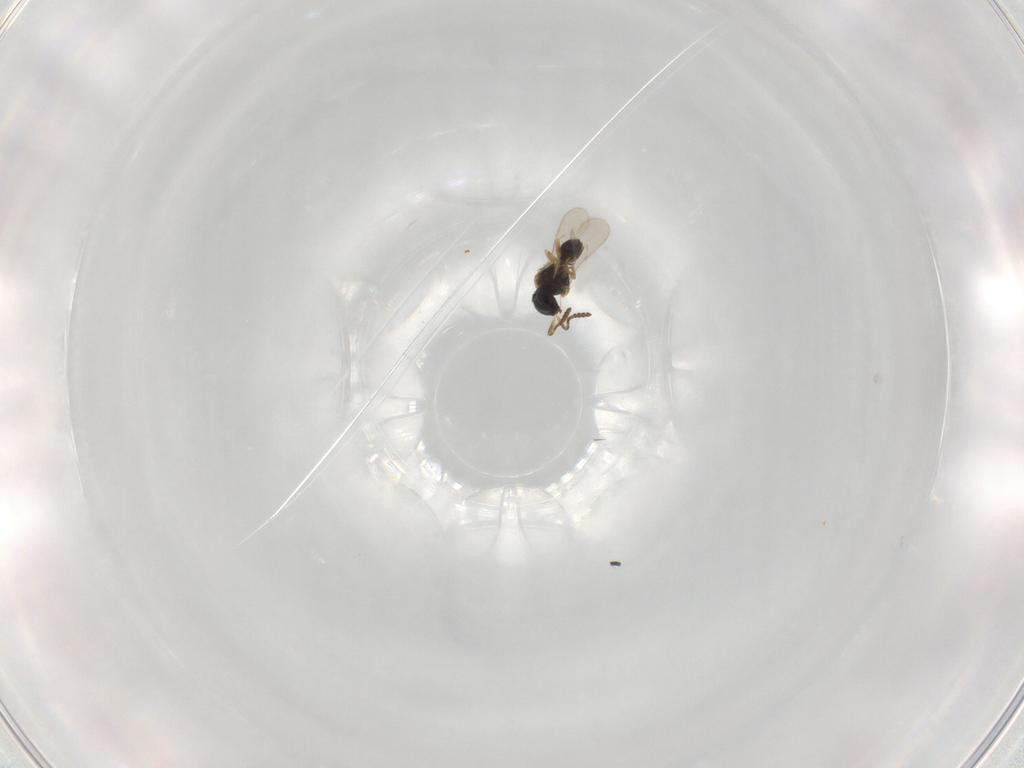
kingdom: Animalia
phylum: Arthropoda
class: Insecta
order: Hymenoptera
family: Scelionidae
